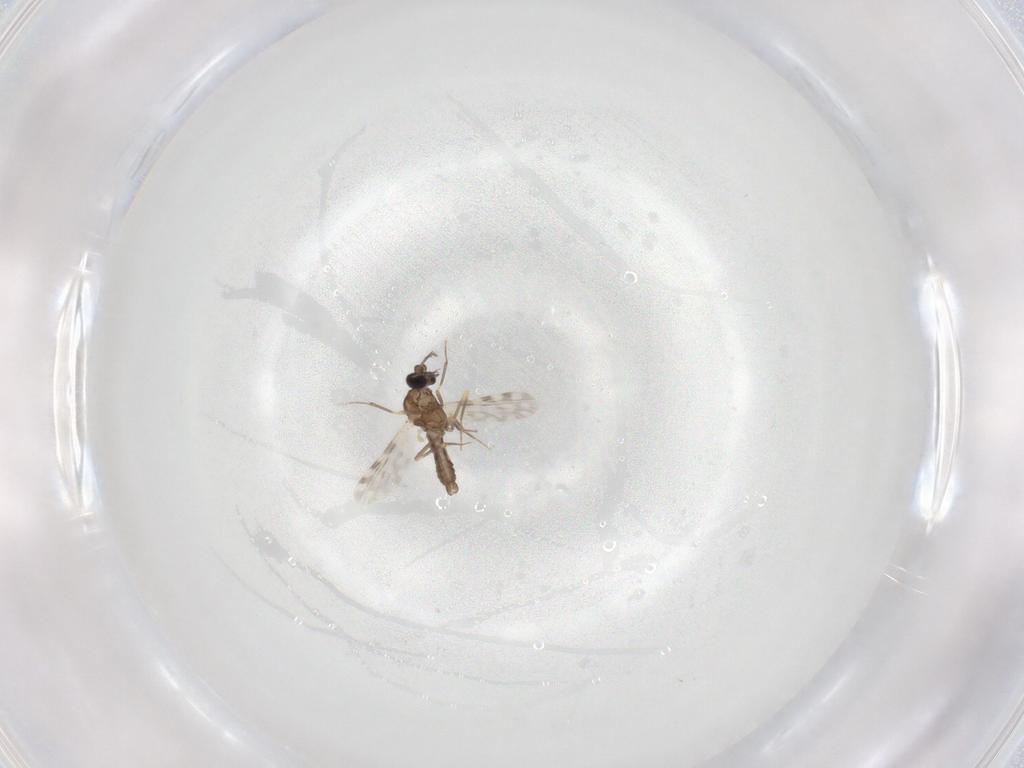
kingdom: Animalia
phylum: Arthropoda
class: Insecta
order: Diptera
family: Ceratopogonidae
